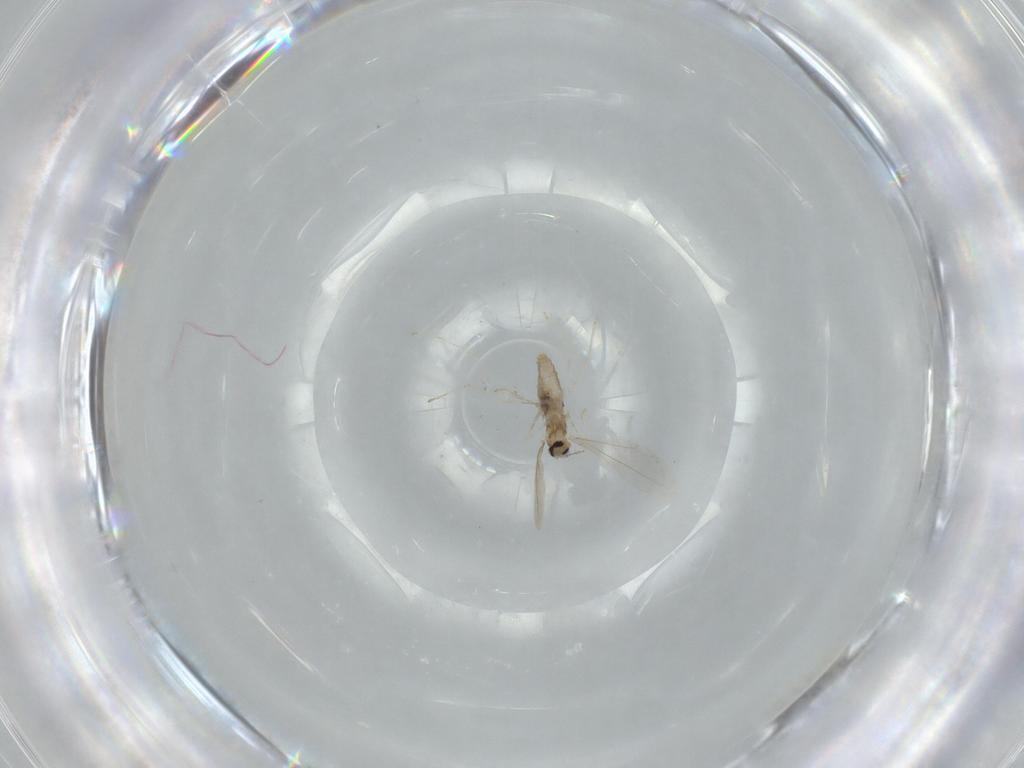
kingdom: Animalia
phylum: Arthropoda
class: Insecta
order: Diptera
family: Cecidomyiidae
